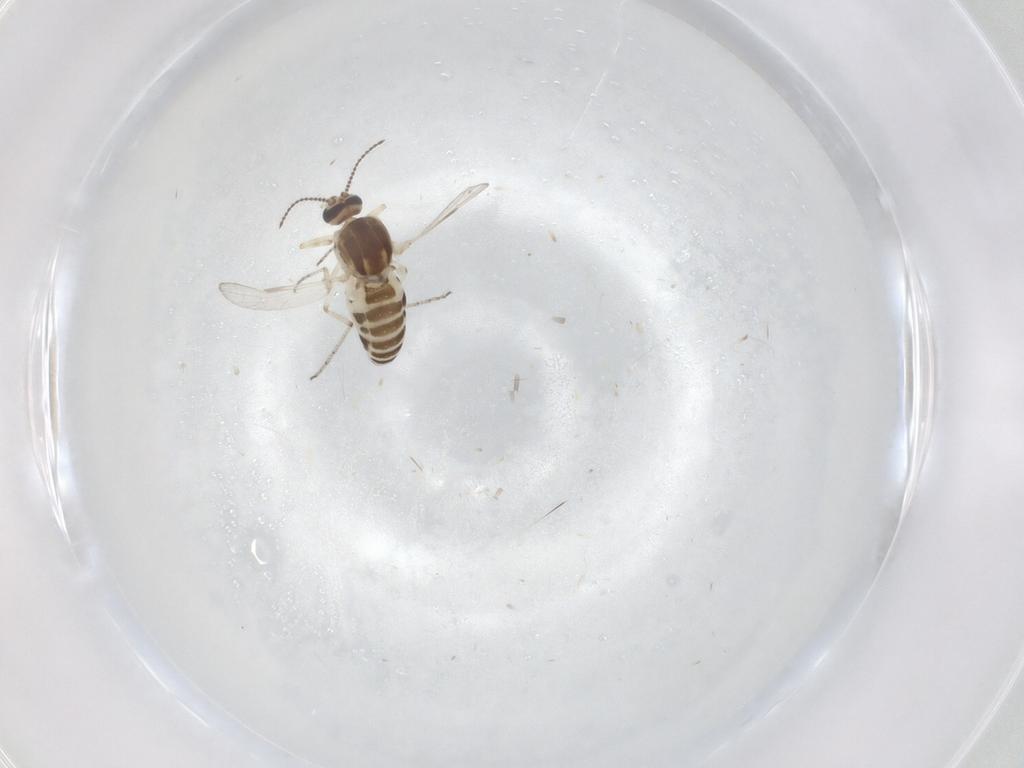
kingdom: Animalia
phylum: Arthropoda
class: Insecta
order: Diptera
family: Ceratopogonidae
